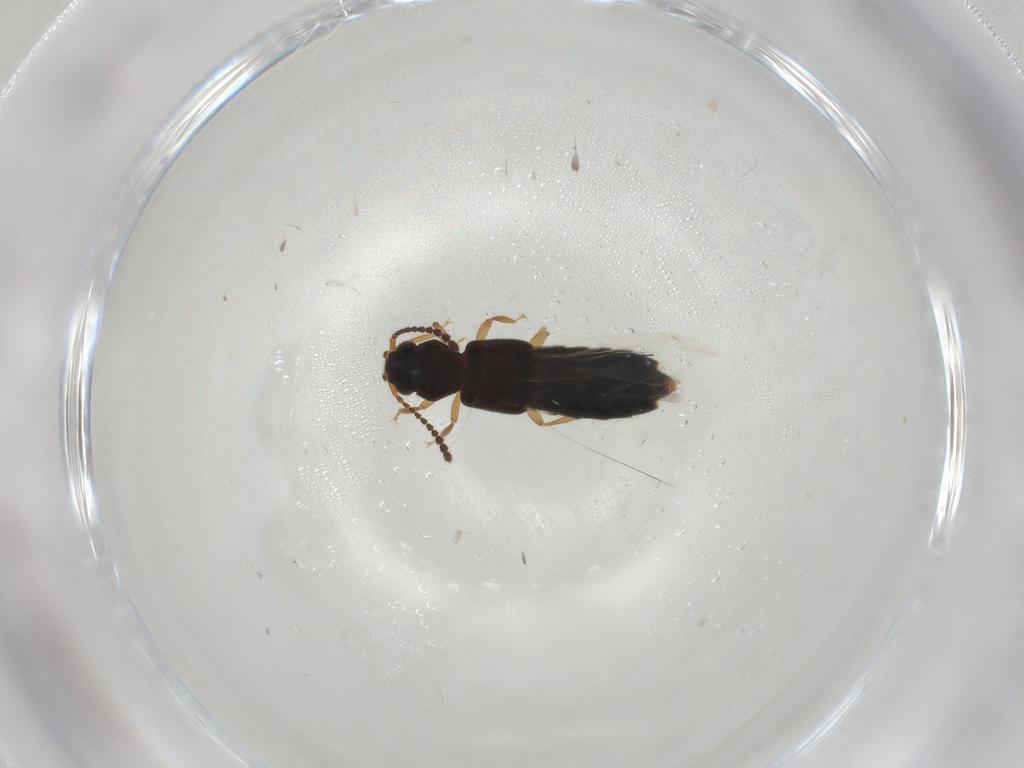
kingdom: Animalia
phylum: Arthropoda
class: Insecta
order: Coleoptera
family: Staphylinidae
